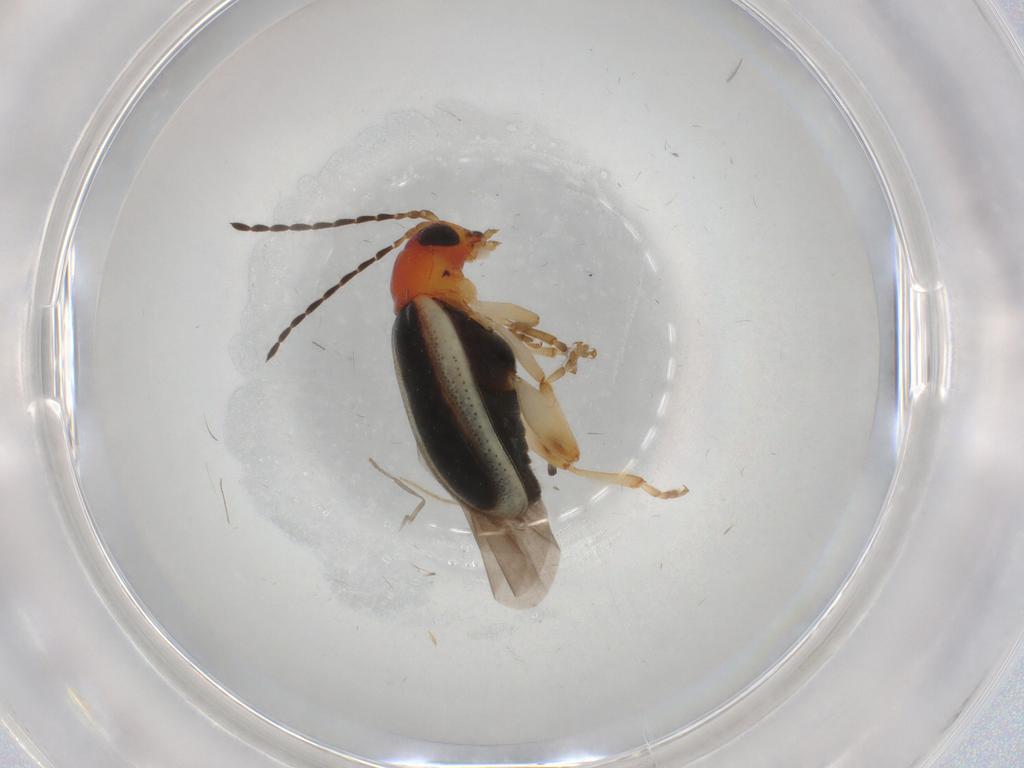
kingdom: Animalia
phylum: Arthropoda
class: Insecta
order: Coleoptera
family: Chrysomelidae
